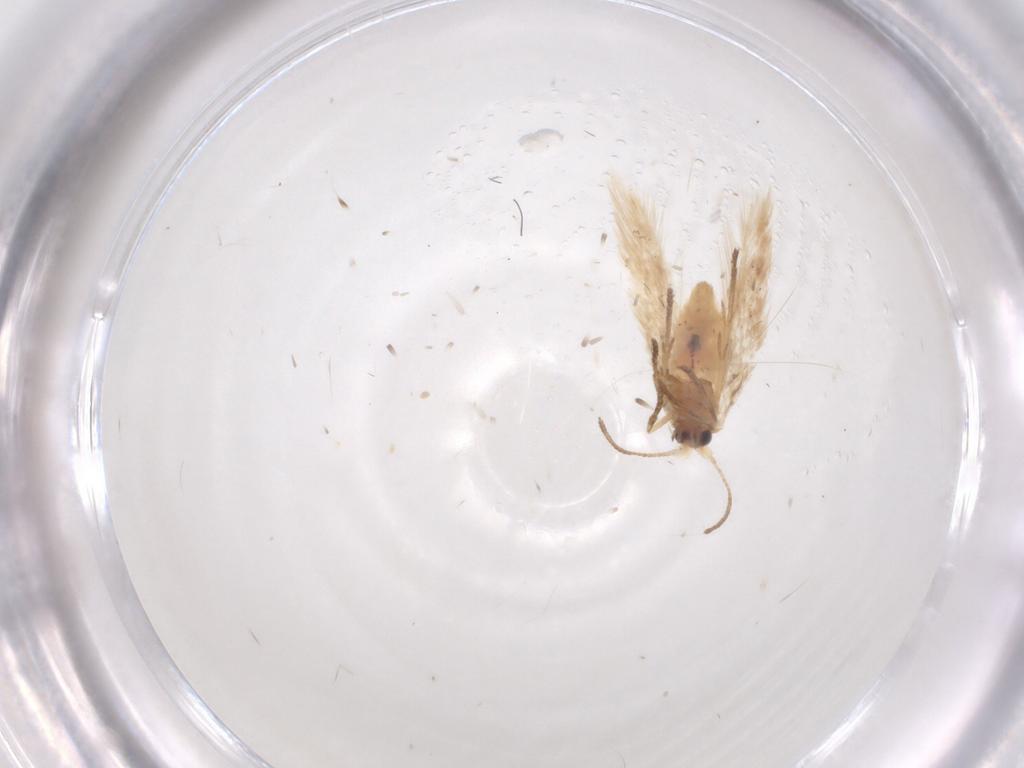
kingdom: Animalia
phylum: Arthropoda
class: Insecta
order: Lepidoptera
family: Nepticulidae
